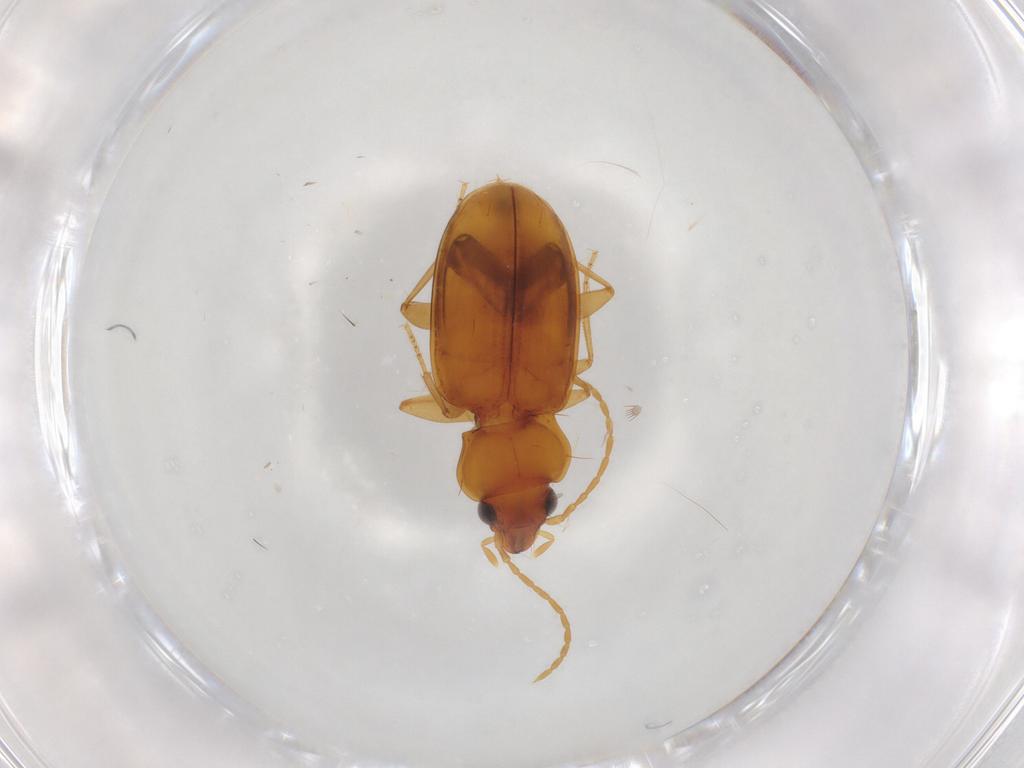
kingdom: Animalia
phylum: Arthropoda
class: Insecta
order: Coleoptera
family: Carabidae
